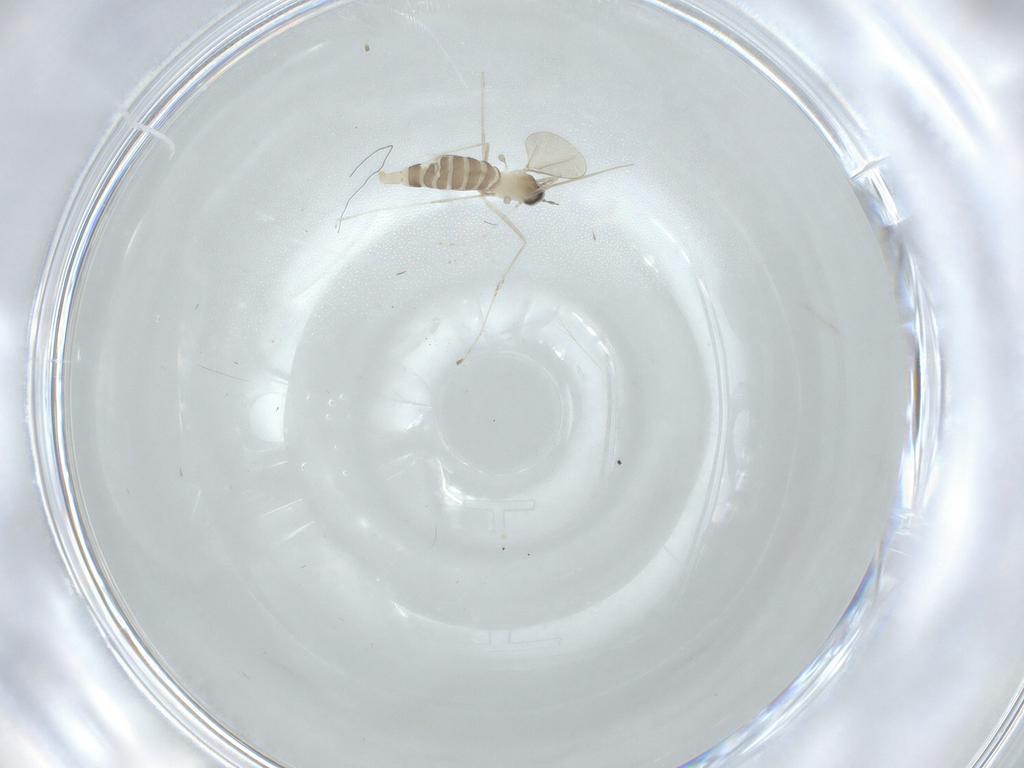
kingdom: Animalia
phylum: Arthropoda
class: Insecta
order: Diptera
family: Cecidomyiidae
